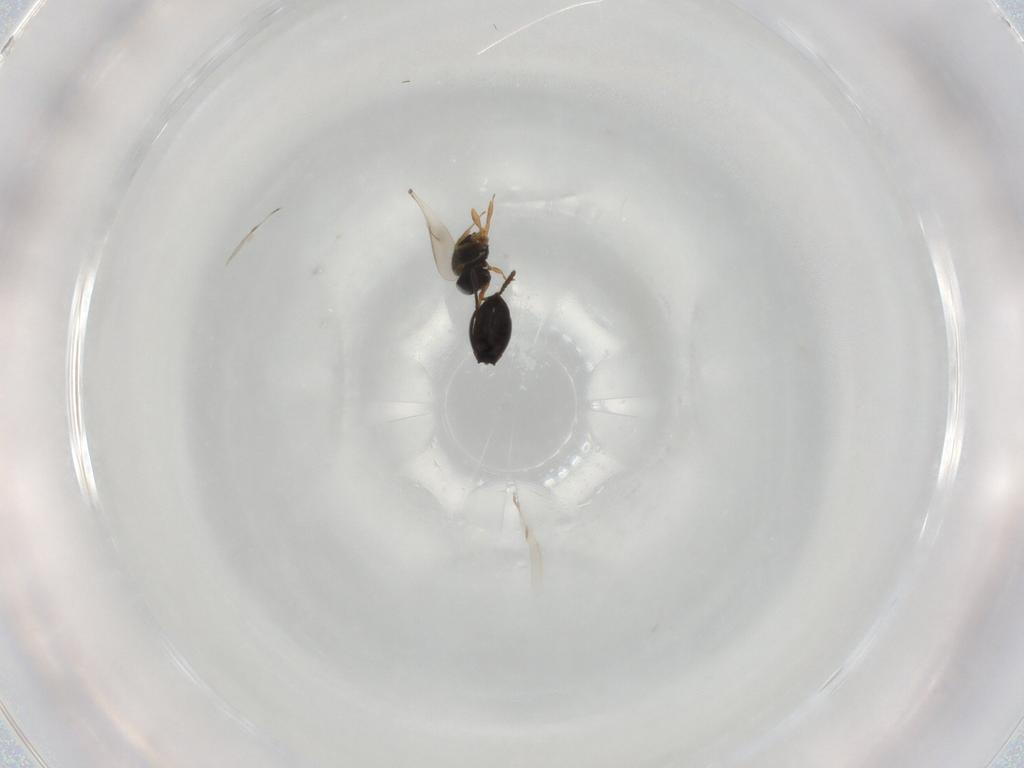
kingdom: Animalia
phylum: Arthropoda
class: Insecta
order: Hymenoptera
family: Scelionidae
